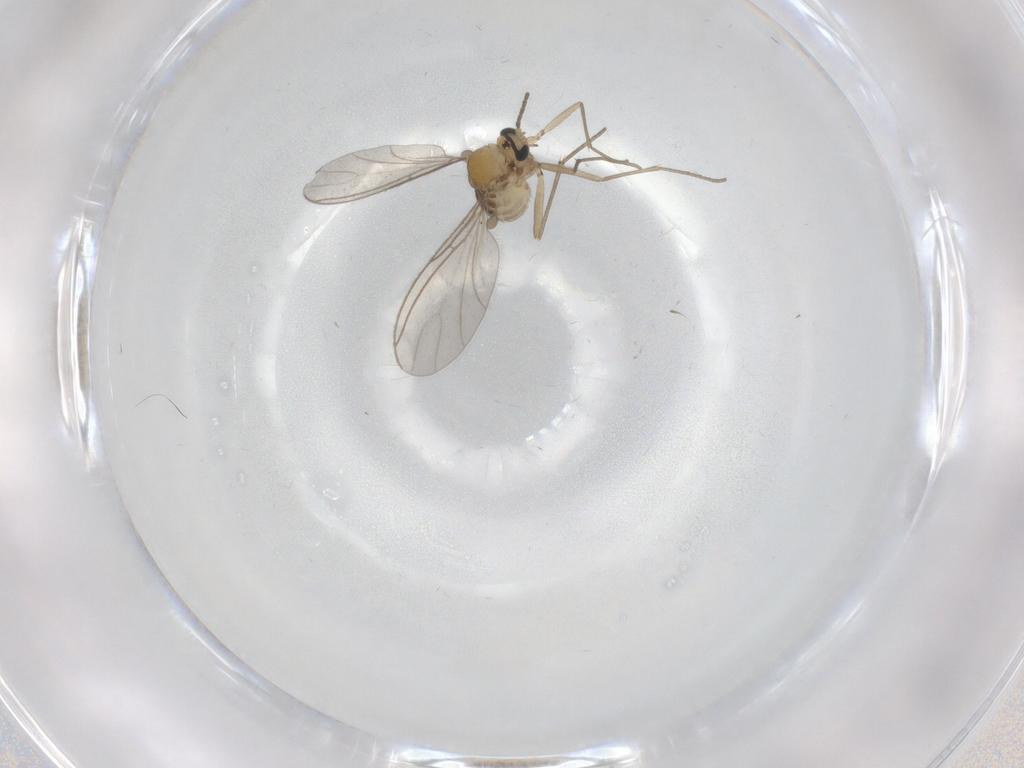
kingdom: Animalia
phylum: Arthropoda
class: Insecta
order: Diptera
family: Sciaridae
